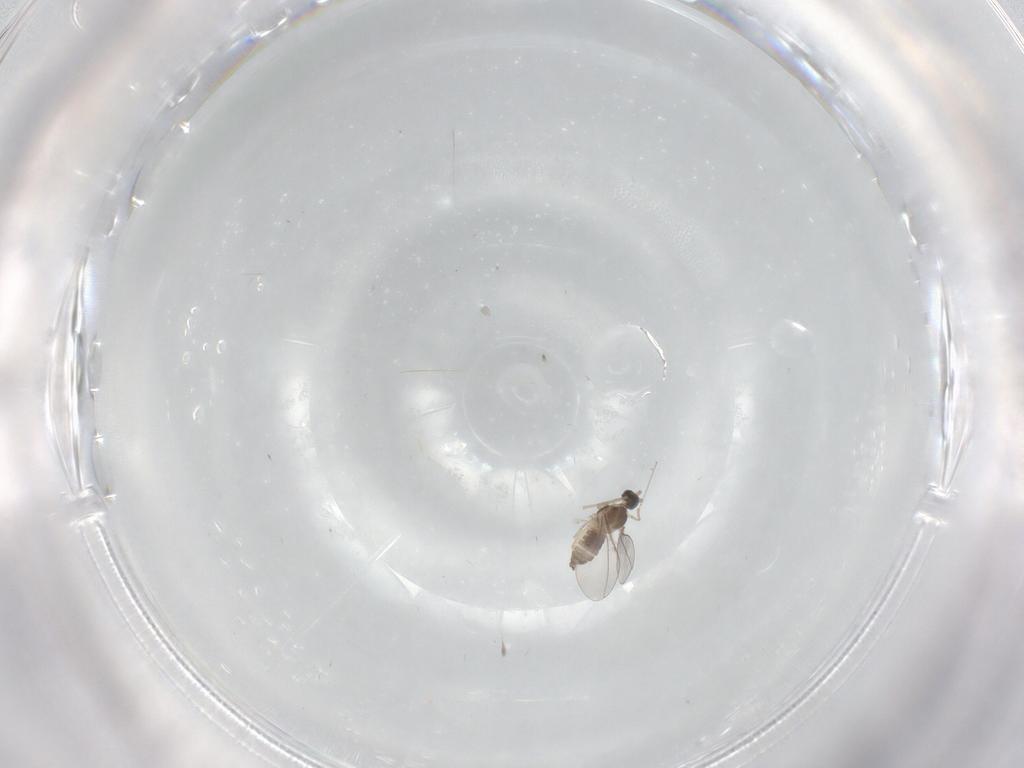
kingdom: Animalia
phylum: Arthropoda
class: Insecta
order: Diptera
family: Cecidomyiidae
